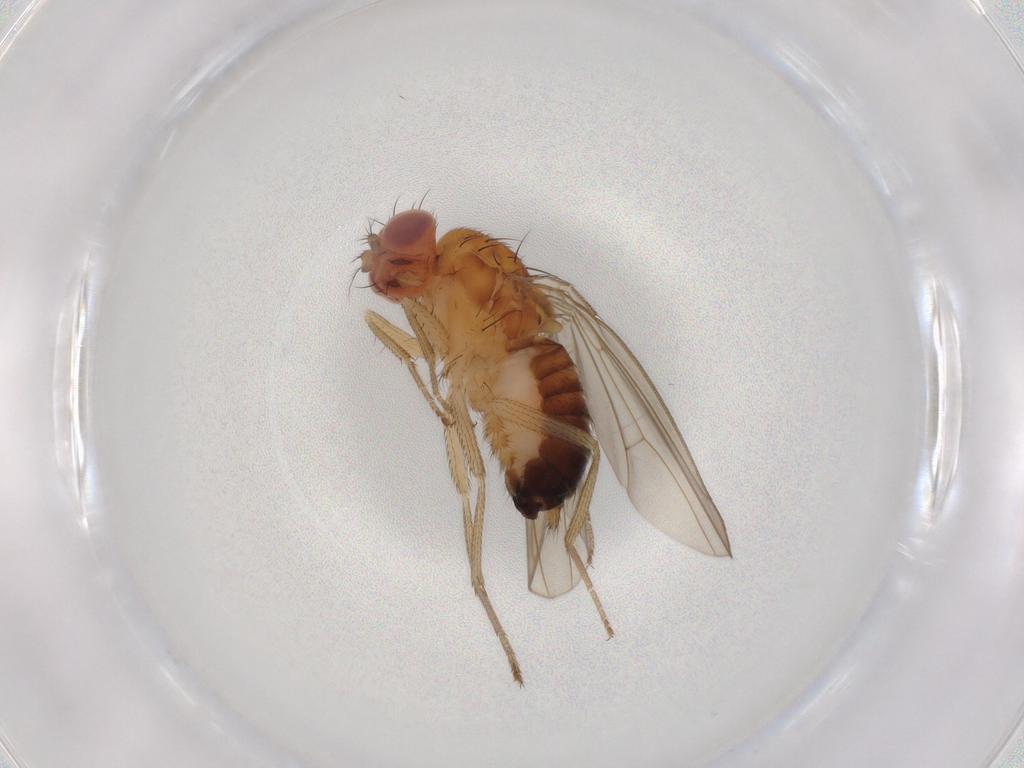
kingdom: Animalia
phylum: Arthropoda
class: Insecta
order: Diptera
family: Drosophilidae
